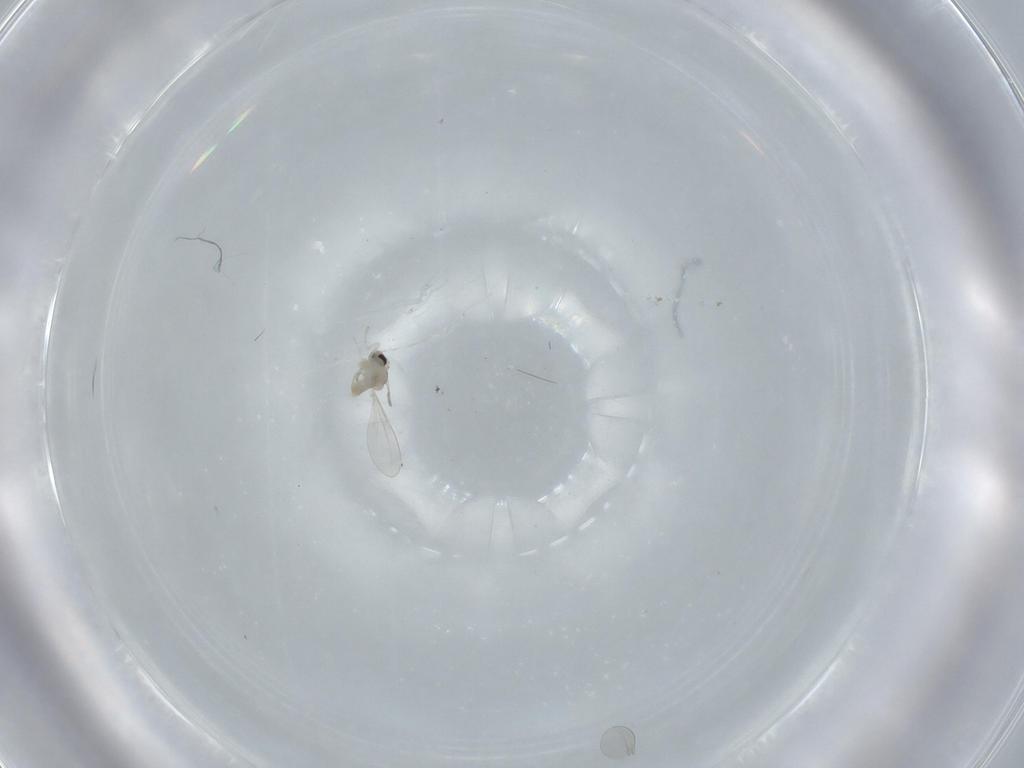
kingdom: Animalia
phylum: Arthropoda
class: Insecta
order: Diptera
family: Cecidomyiidae
